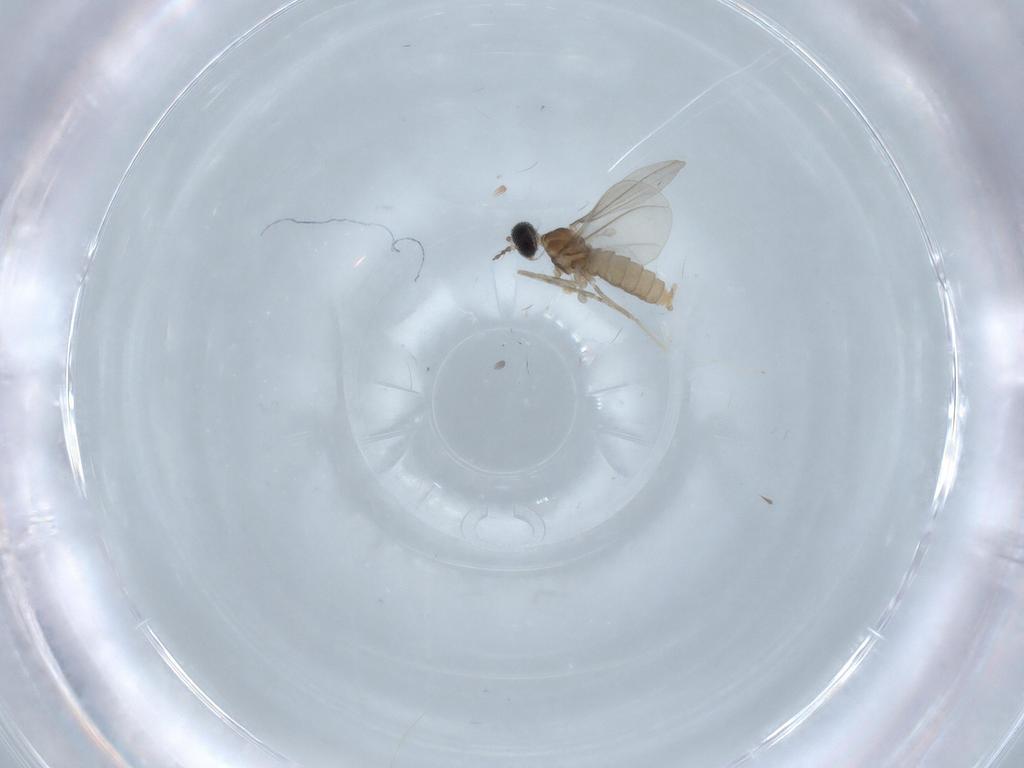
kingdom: Animalia
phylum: Arthropoda
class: Insecta
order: Diptera
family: Cecidomyiidae
